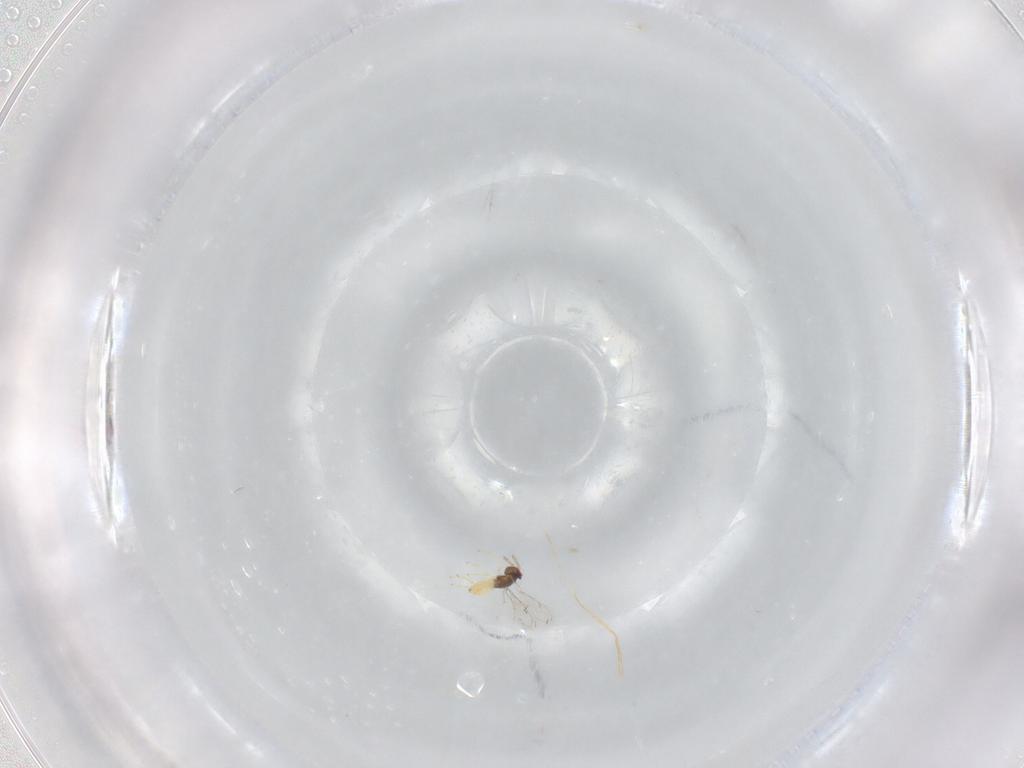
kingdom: Animalia
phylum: Arthropoda
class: Insecta
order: Hymenoptera
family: Eulophidae
